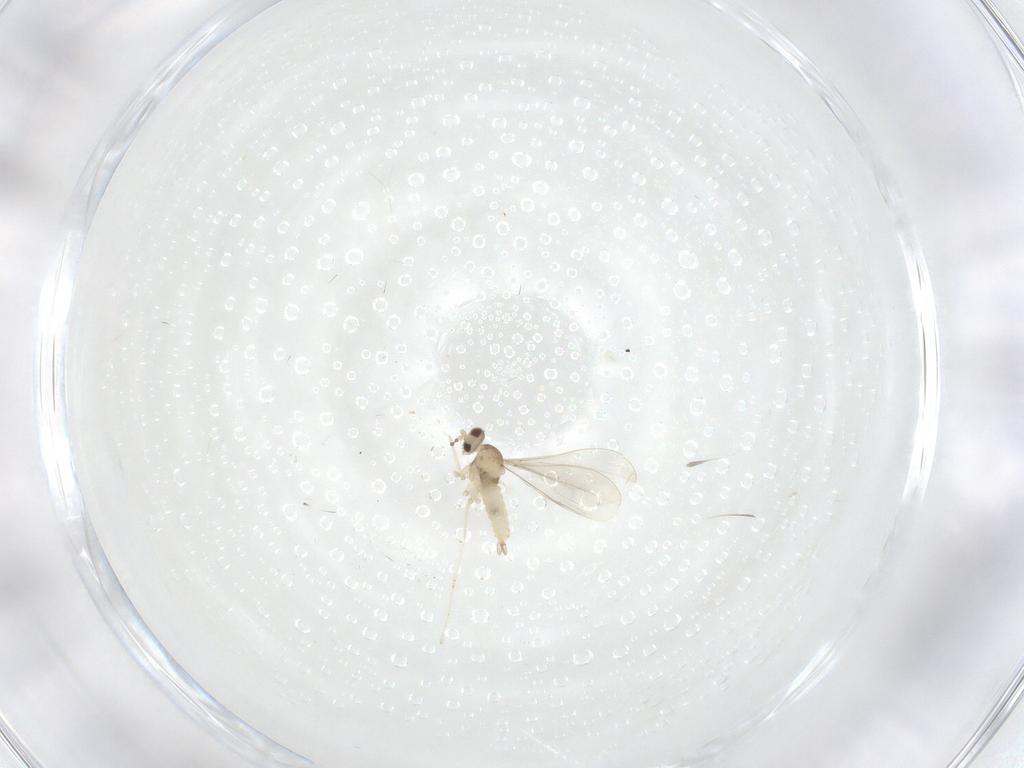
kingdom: Animalia
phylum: Arthropoda
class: Insecta
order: Diptera
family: Cecidomyiidae
